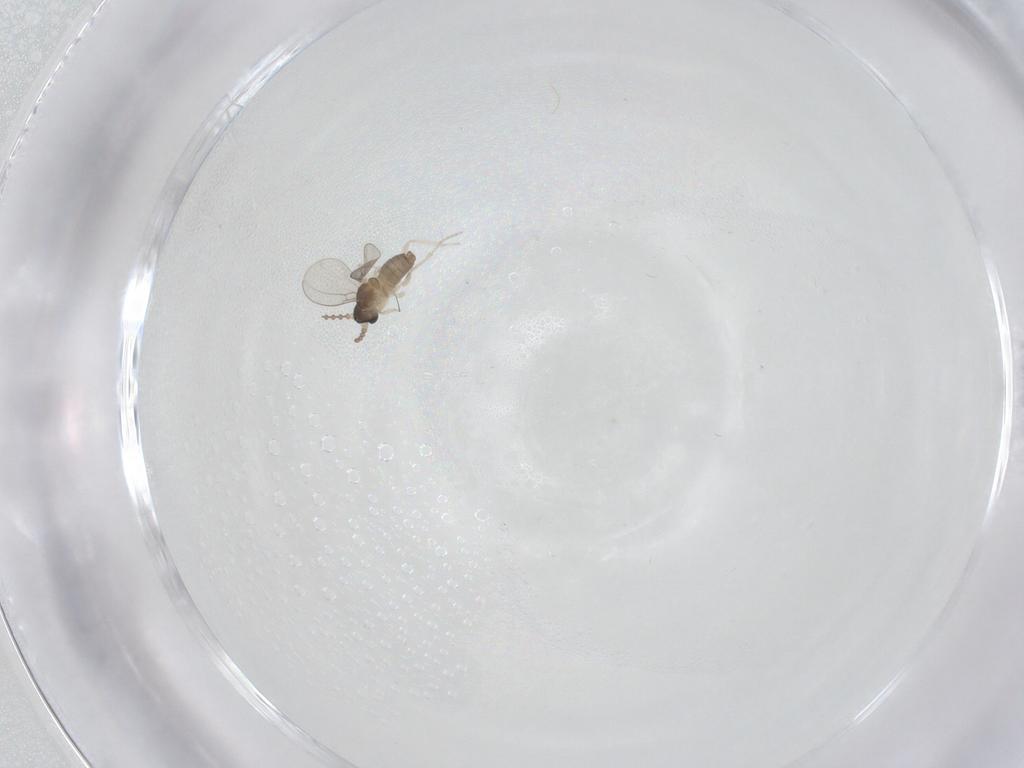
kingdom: Animalia
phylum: Arthropoda
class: Insecta
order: Diptera
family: Cecidomyiidae
